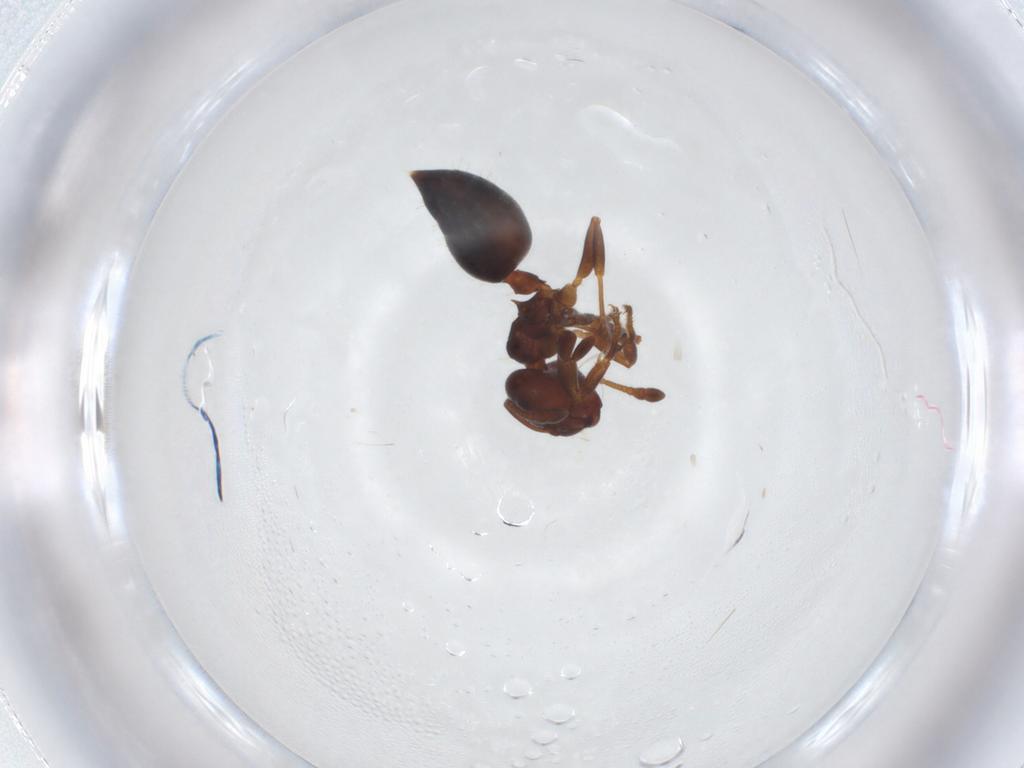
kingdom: Animalia
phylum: Arthropoda
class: Insecta
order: Hymenoptera
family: Formicidae
